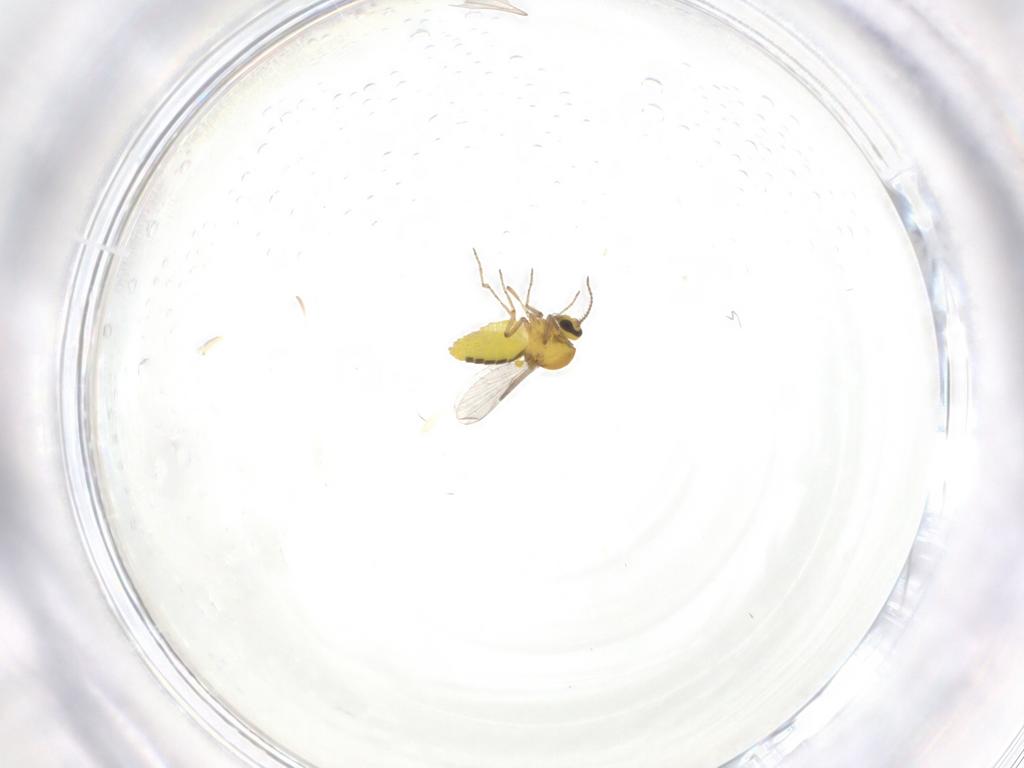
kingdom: Animalia
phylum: Arthropoda
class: Insecta
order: Diptera
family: Ceratopogonidae
